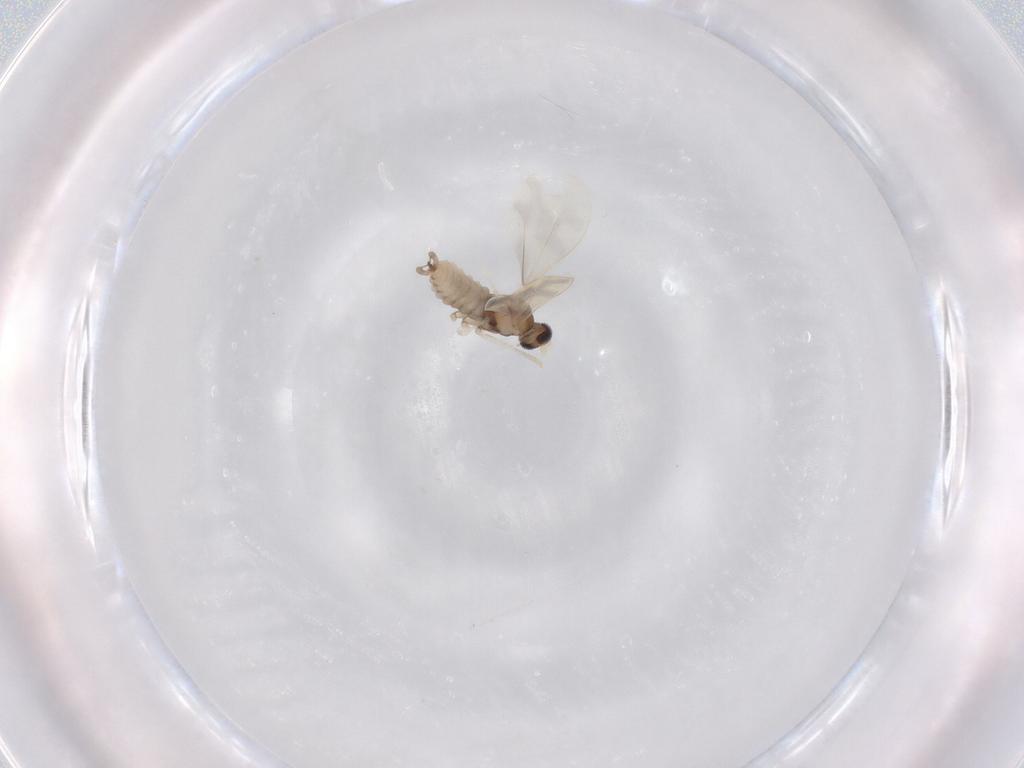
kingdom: Animalia
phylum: Arthropoda
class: Insecta
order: Diptera
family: Cecidomyiidae
